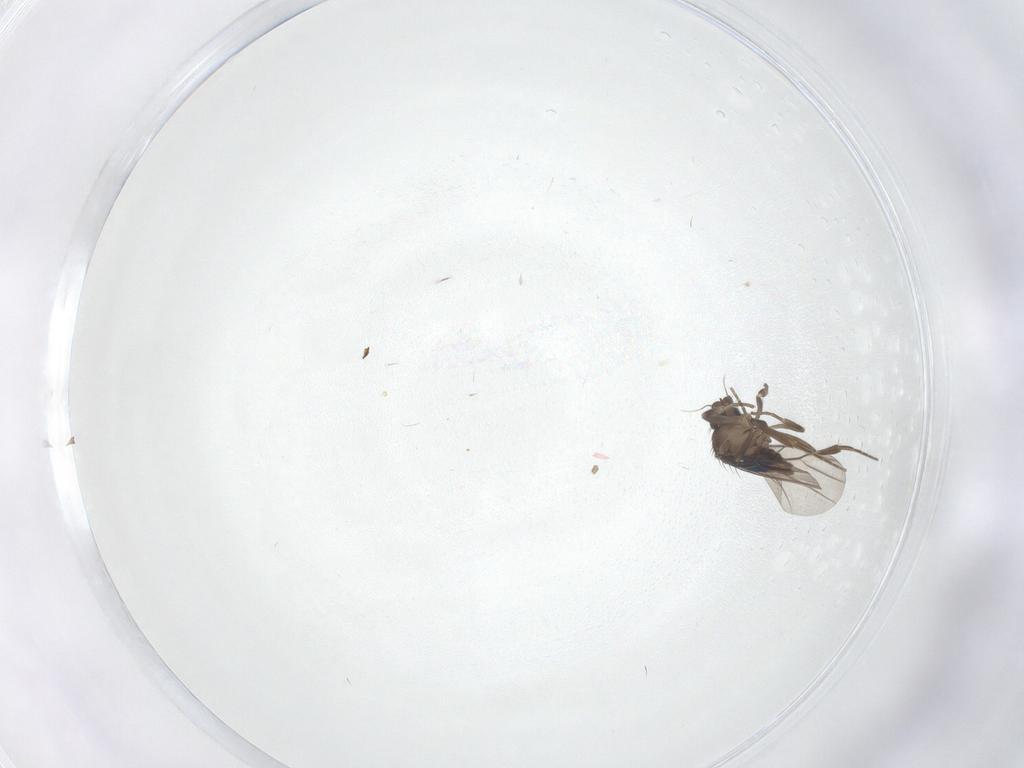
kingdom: Animalia
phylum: Arthropoda
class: Insecta
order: Diptera
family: Phoridae
